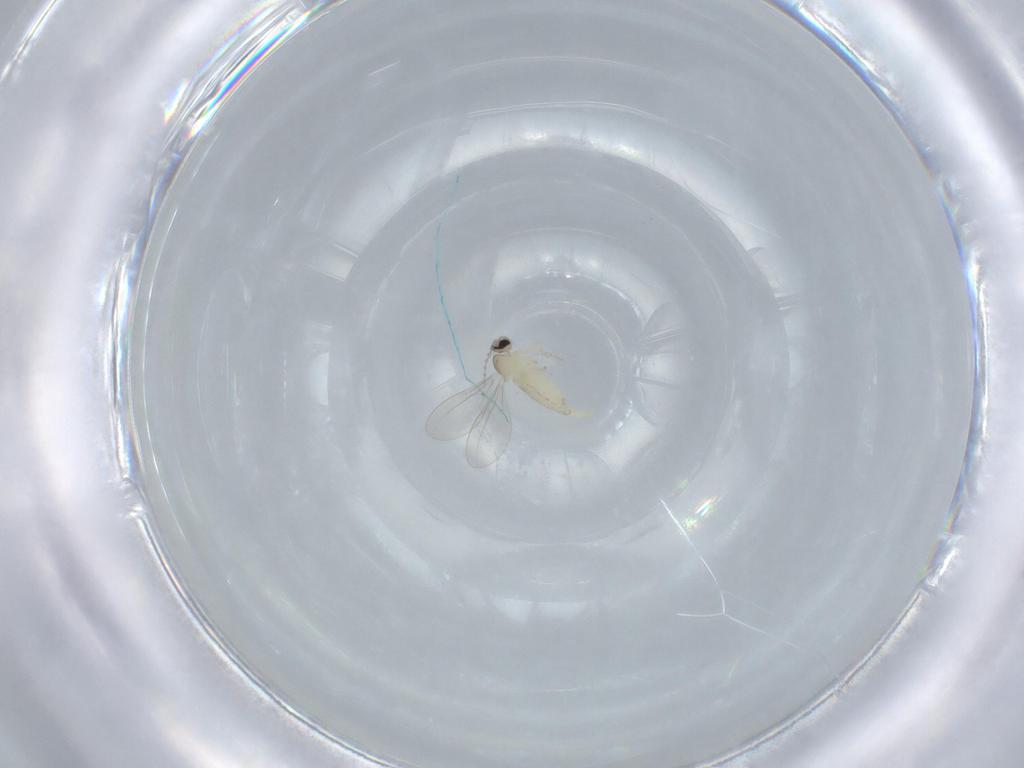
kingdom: Animalia
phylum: Arthropoda
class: Insecta
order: Diptera
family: Cecidomyiidae
